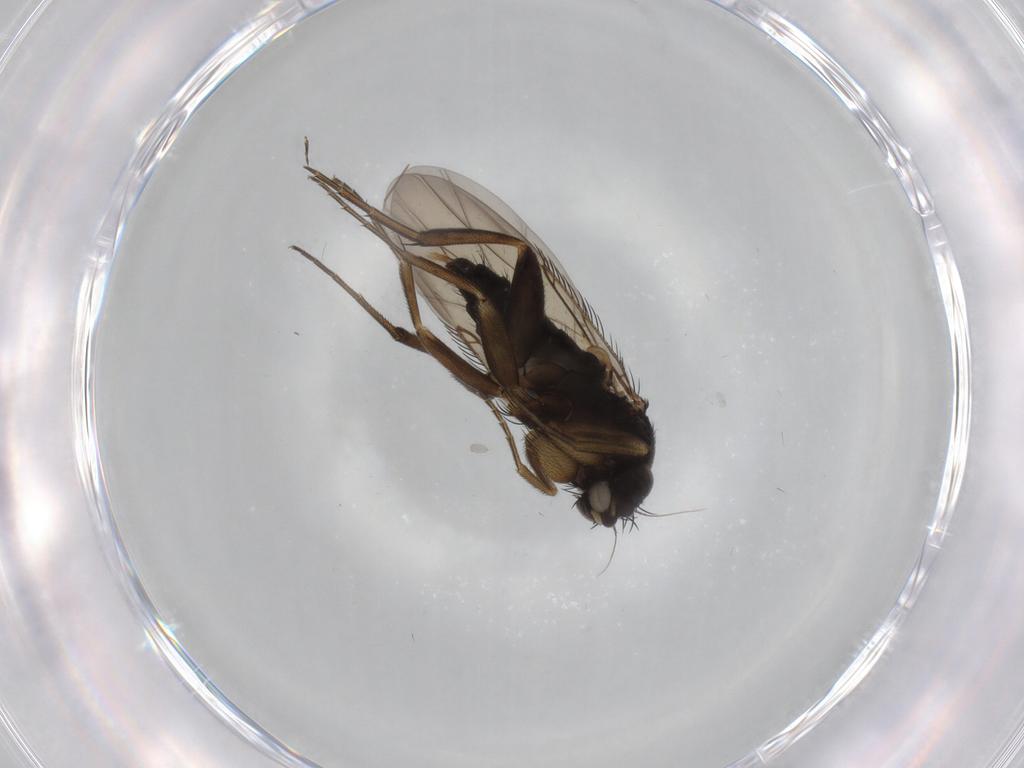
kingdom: Animalia
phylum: Arthropoda
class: Insecta
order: Diptera
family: Phoridae
